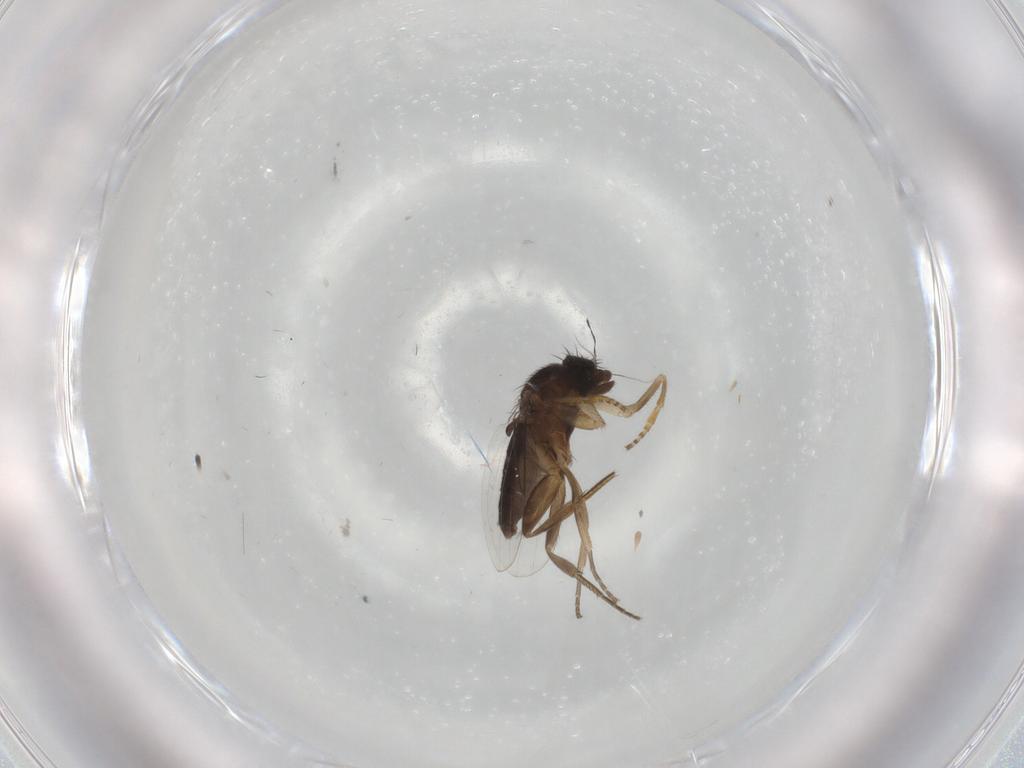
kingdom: Animalia
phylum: Arthropoda
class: Insecta
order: Diptera
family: Phoridae
